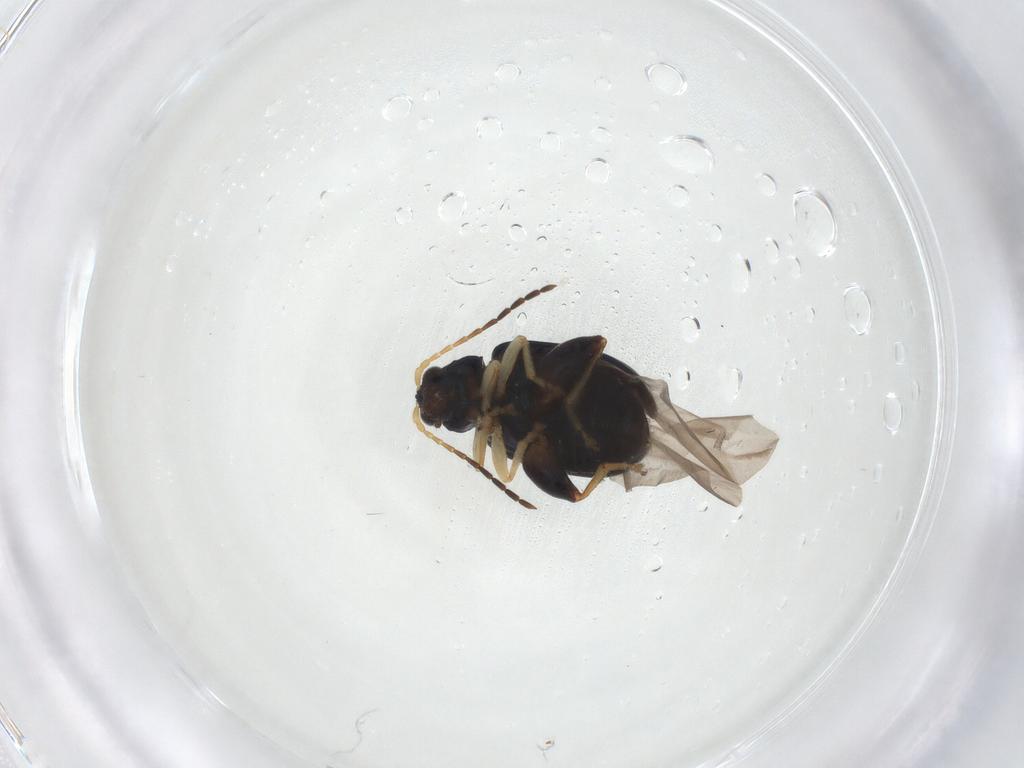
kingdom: Animalia
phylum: Arthropoda
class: Insecta
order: Coleoptera
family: Chrysomelidae
